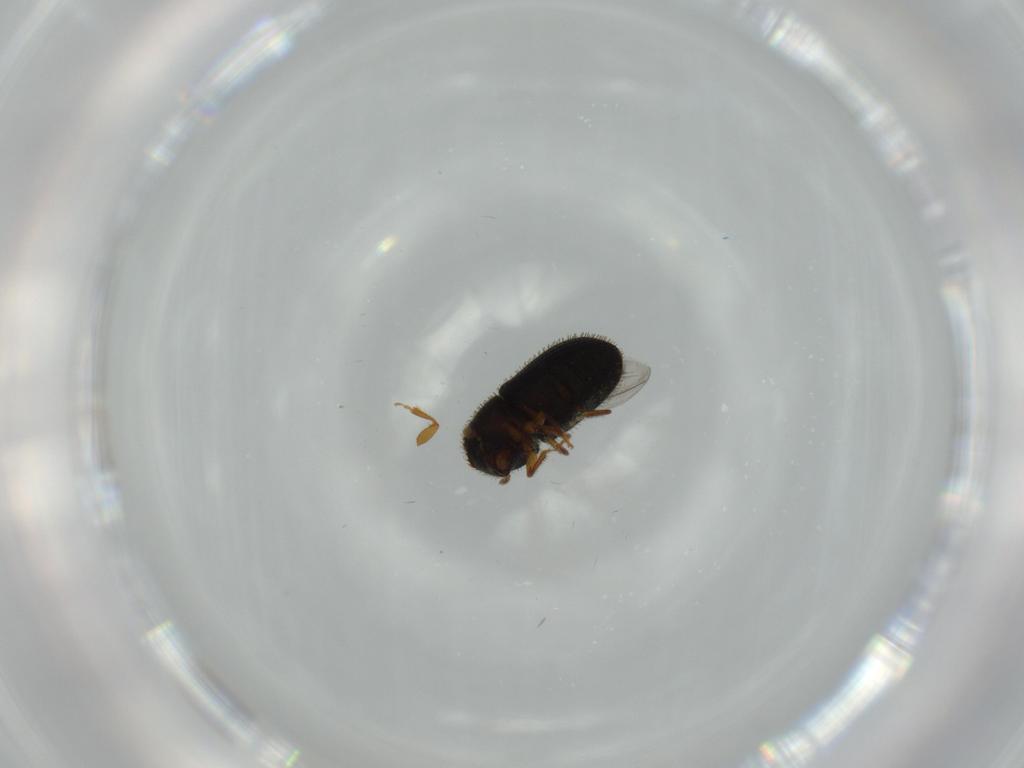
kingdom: Animalia
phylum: Arthropoda
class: Insecta
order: Coleoptera
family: Curculionidae
